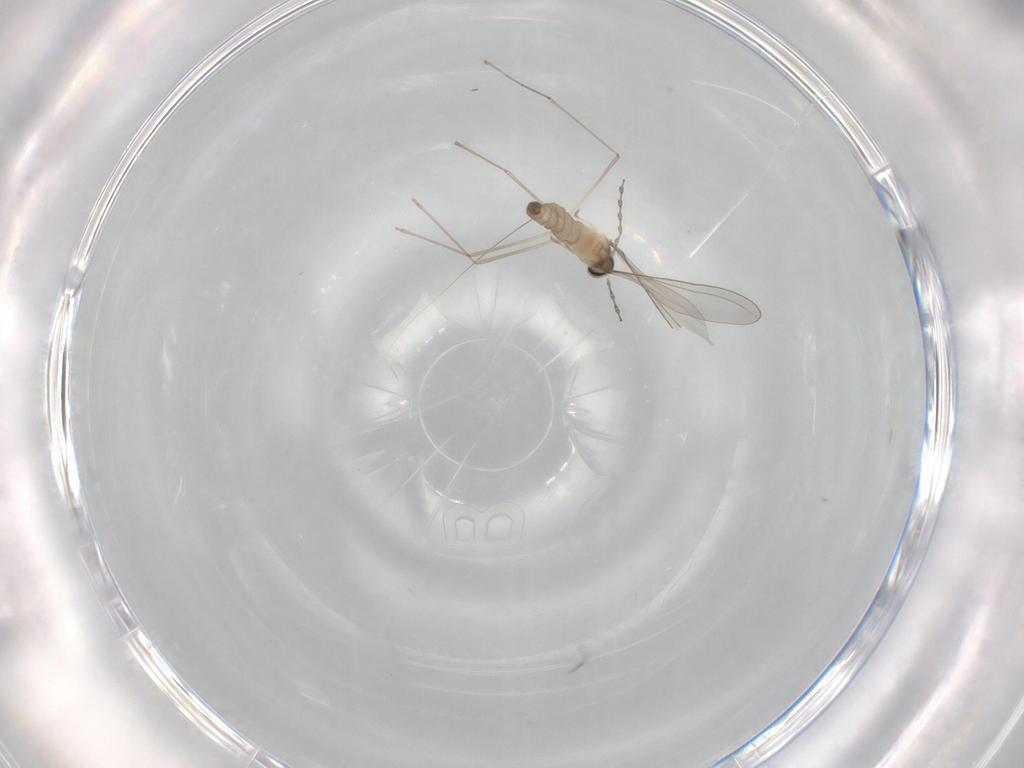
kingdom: Animalia
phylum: Arthropoda
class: Insecta
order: Diptera
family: Cecidomyiidae
